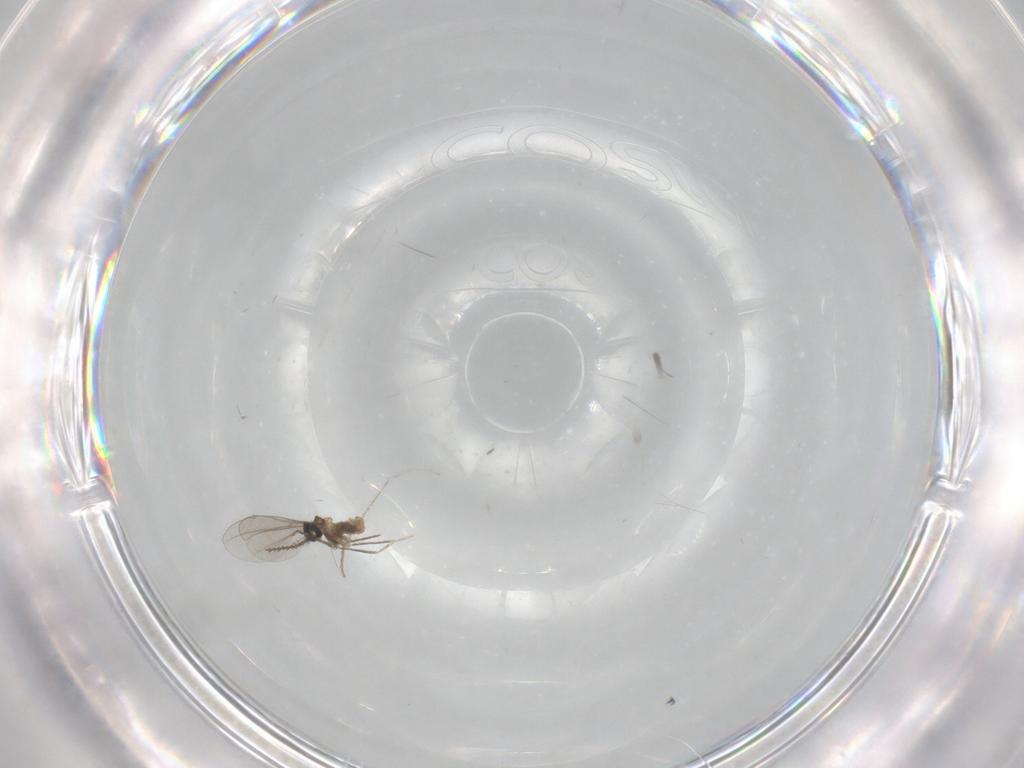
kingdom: Animalia
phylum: Arthropoda
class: Insecta
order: Diptera
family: Cecidomyiidae
